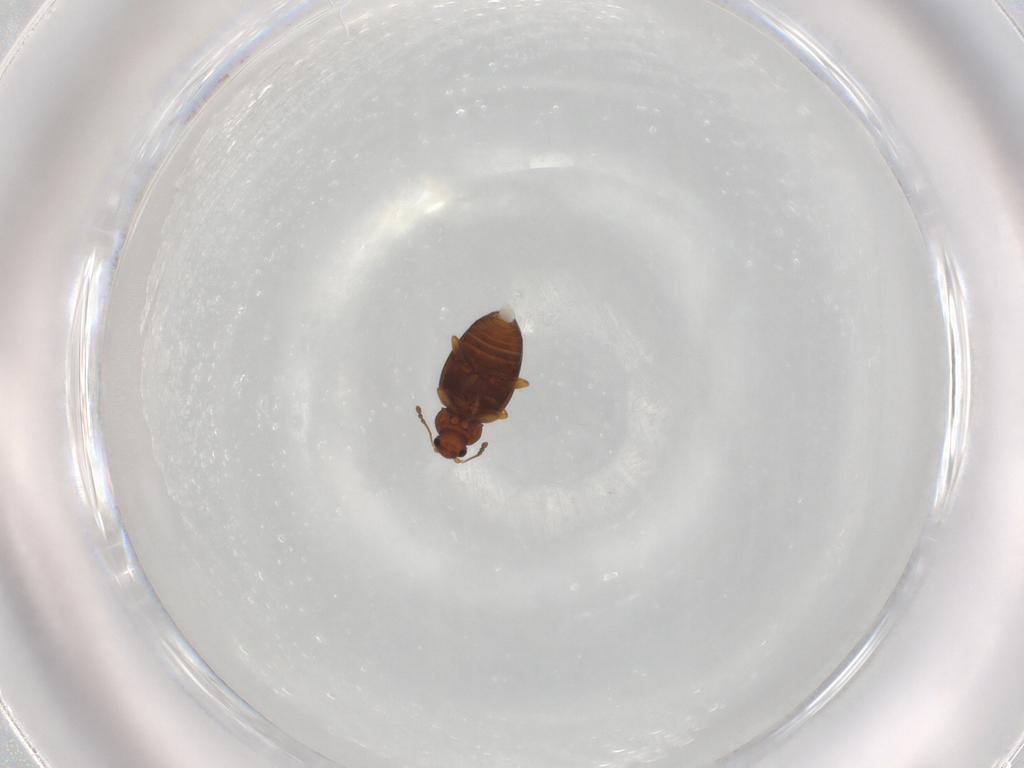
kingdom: Animalia
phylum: Arthropoda
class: Insecta
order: Coleoptera
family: Latridiidae
